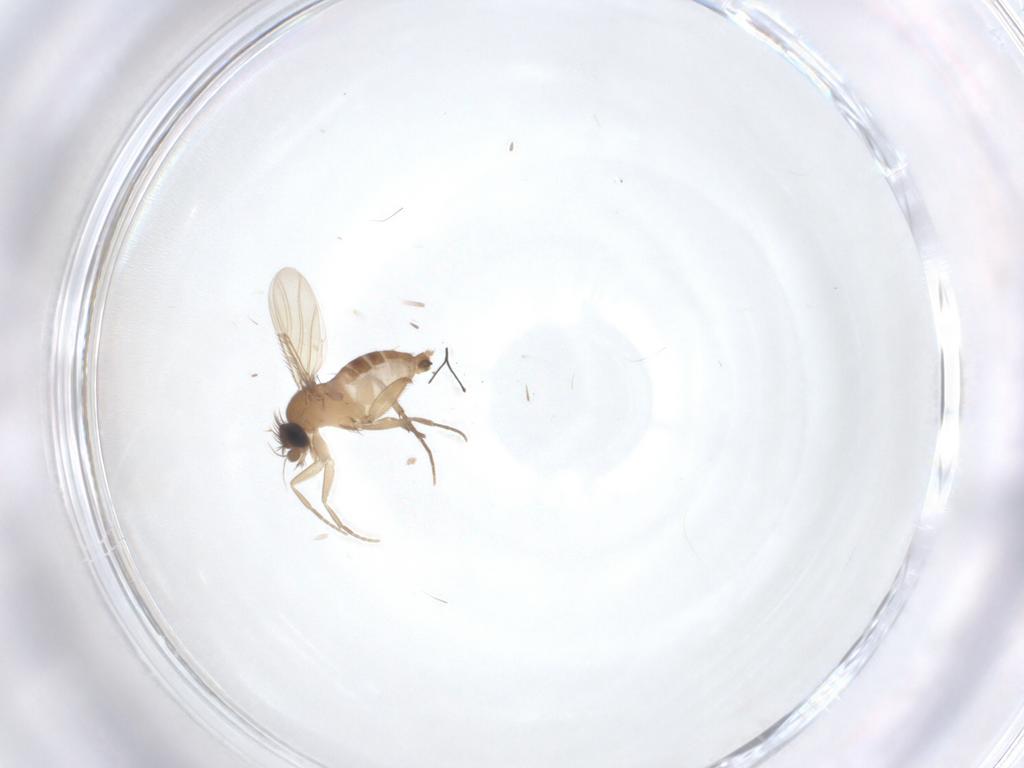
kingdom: Animalia
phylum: Arthropoda
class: Insecta
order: Diptera
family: Phoridae
